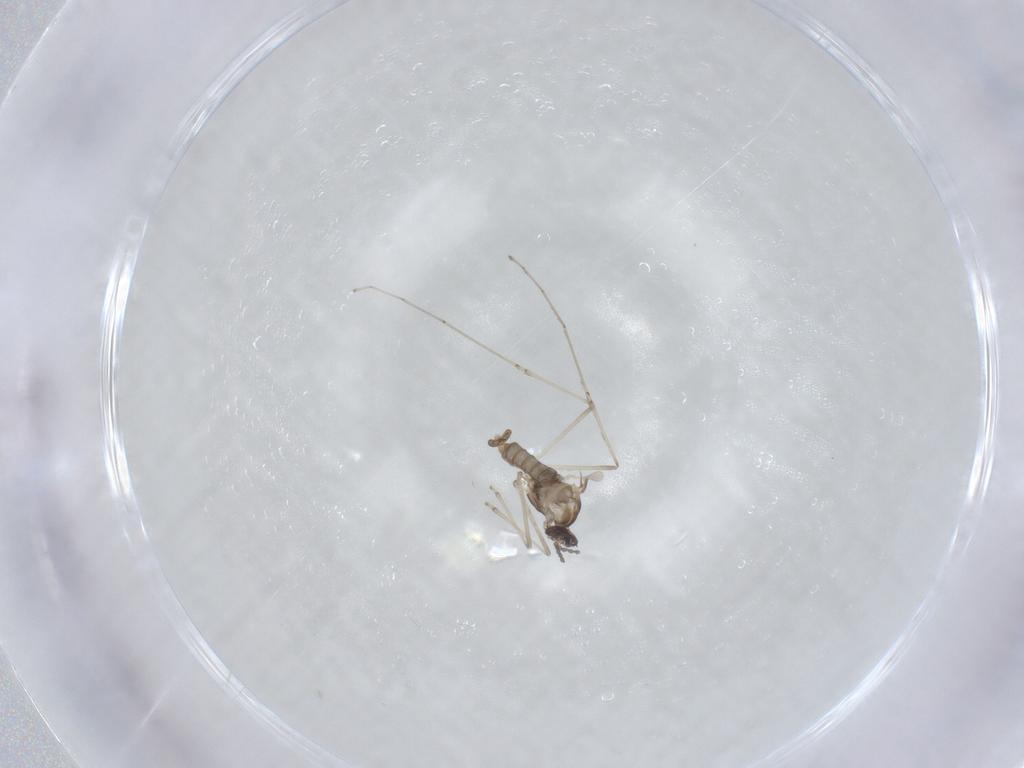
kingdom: Animalia
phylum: Arthropoda
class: Insecta
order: Diptera
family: Cecidomyiidae
